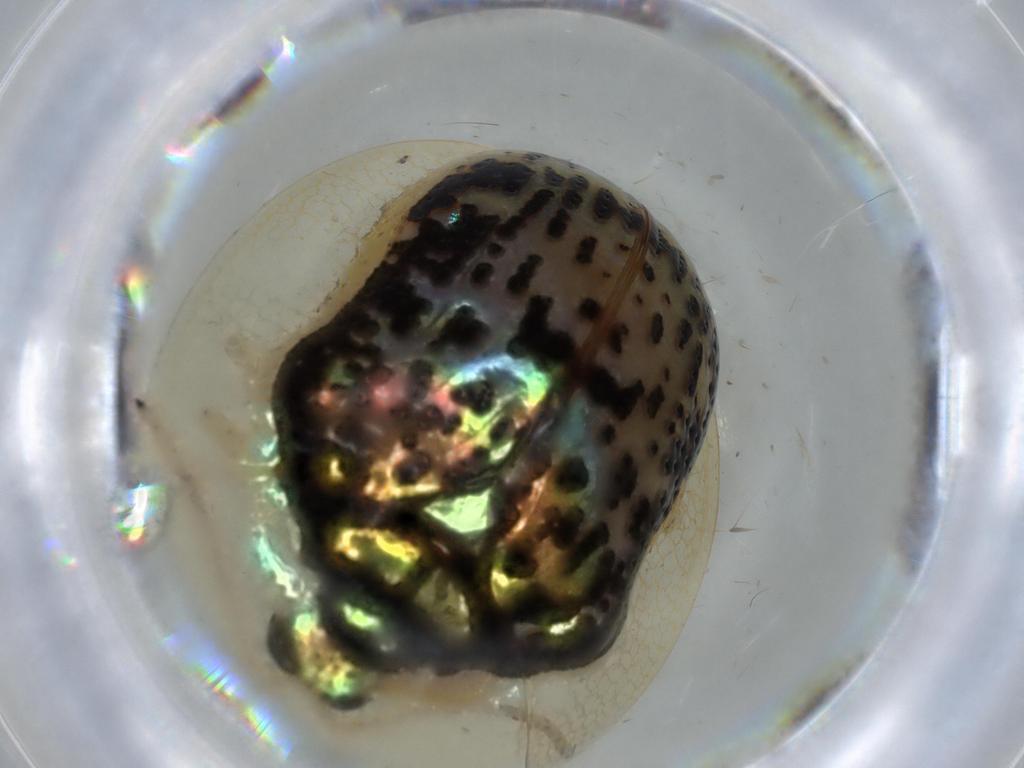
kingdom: Animalia
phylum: Arthropoda
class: Insecta
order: Coleoptera
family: Chrysomelidae
